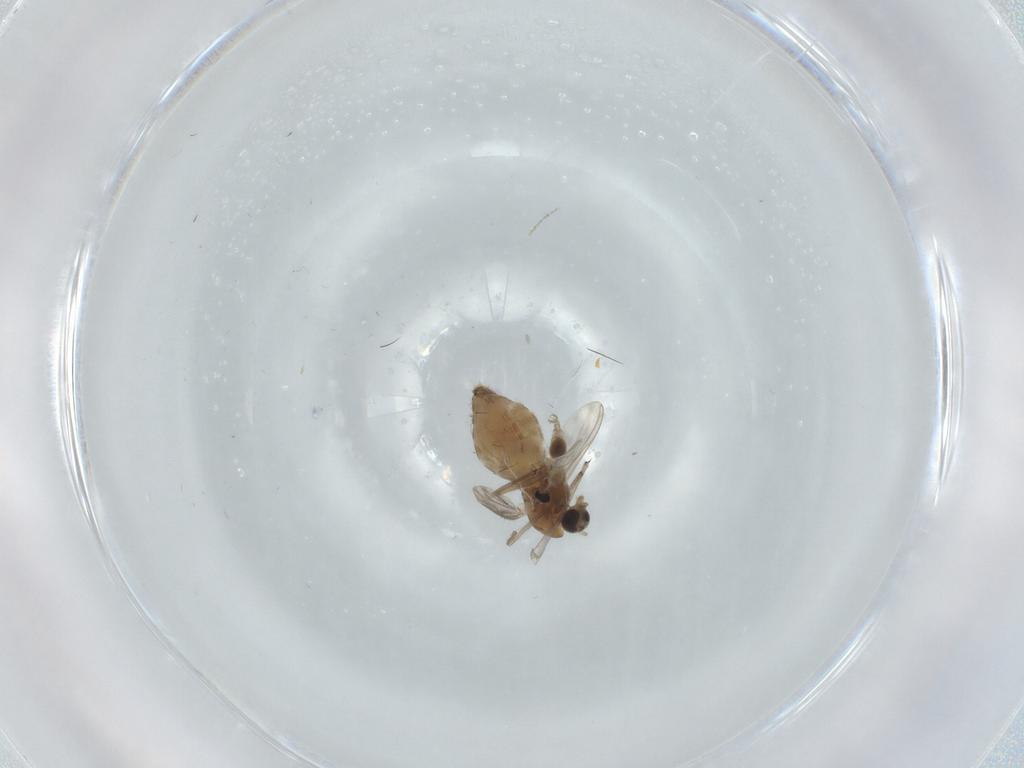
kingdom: Animalia
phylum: Arthropoda
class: Insecta
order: Diptera
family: Chironomidae
